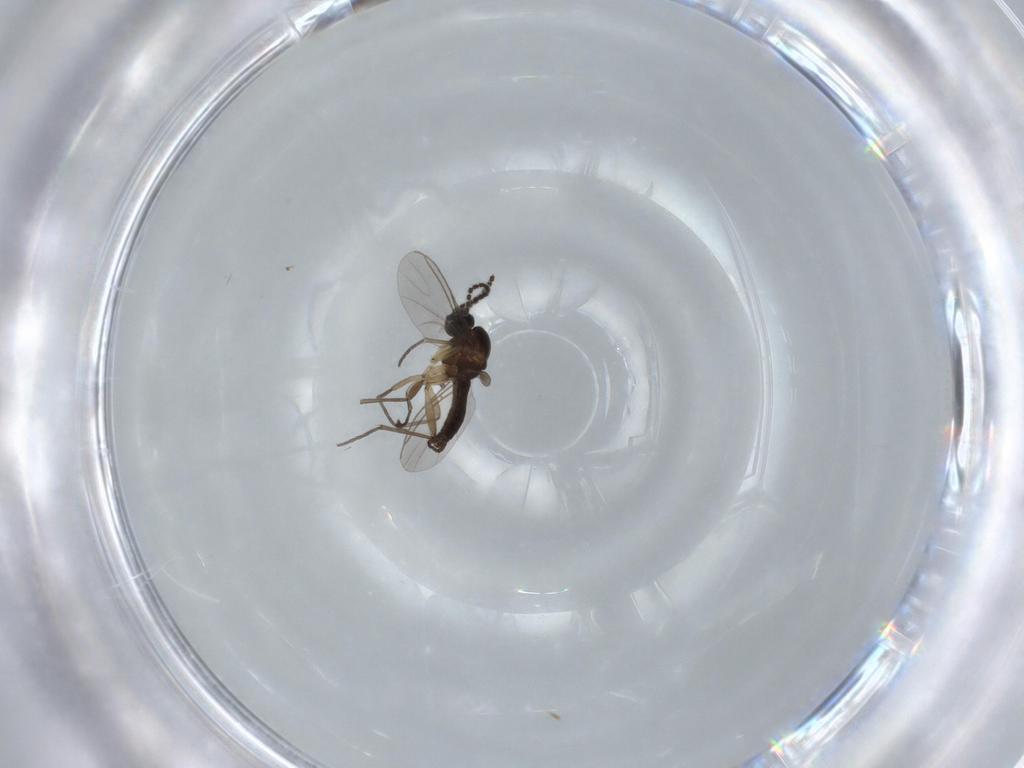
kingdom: Animalia
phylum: Arthropoda
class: Insecta
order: Diptera
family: Sciaridae
